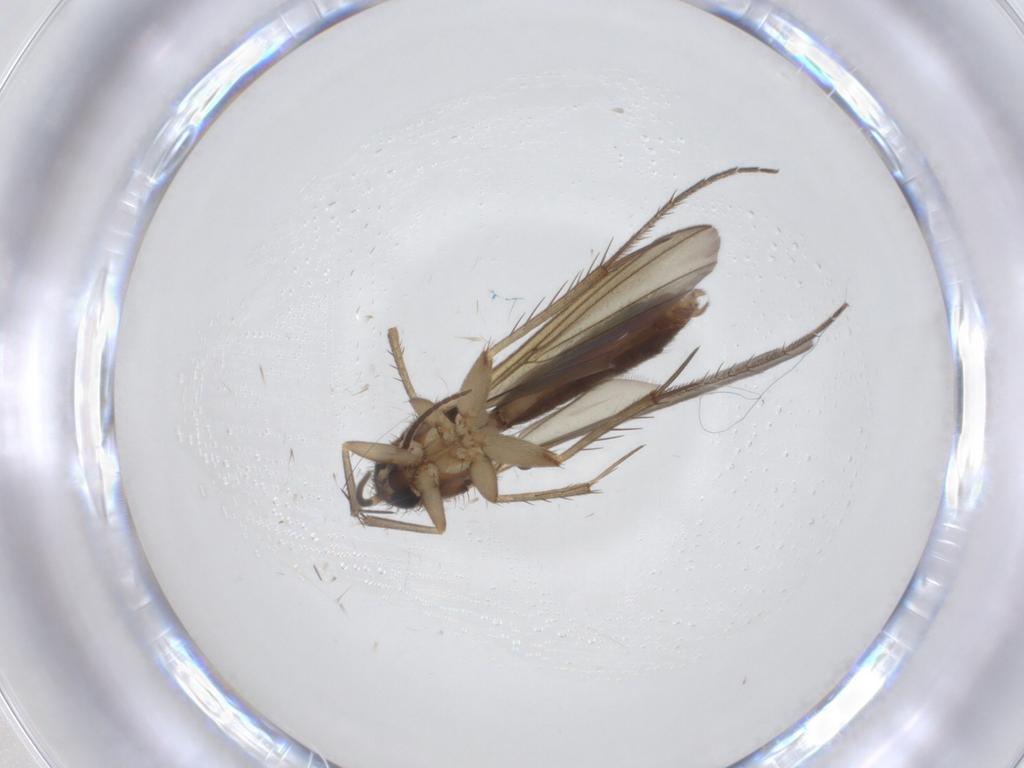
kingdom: Animalia
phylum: Arthropoda
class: Insecta
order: Diptera
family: Phoridae
